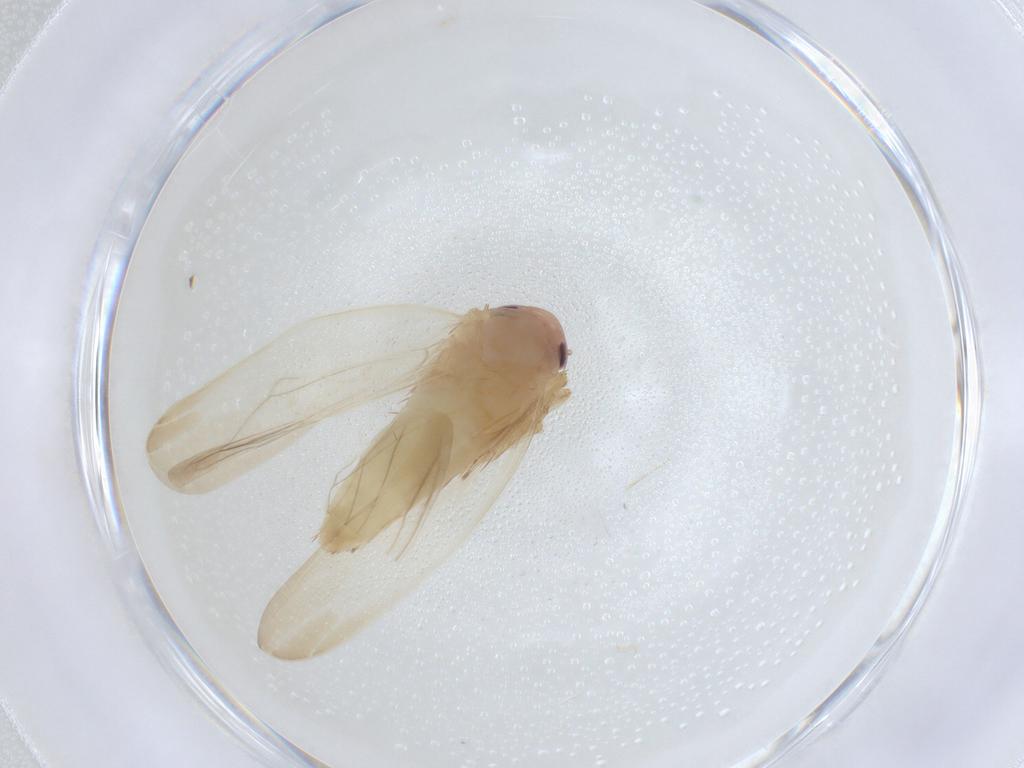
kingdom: Animalia
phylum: Arthropoda
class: Insecta
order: Hemiptera
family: Cicadellidae
